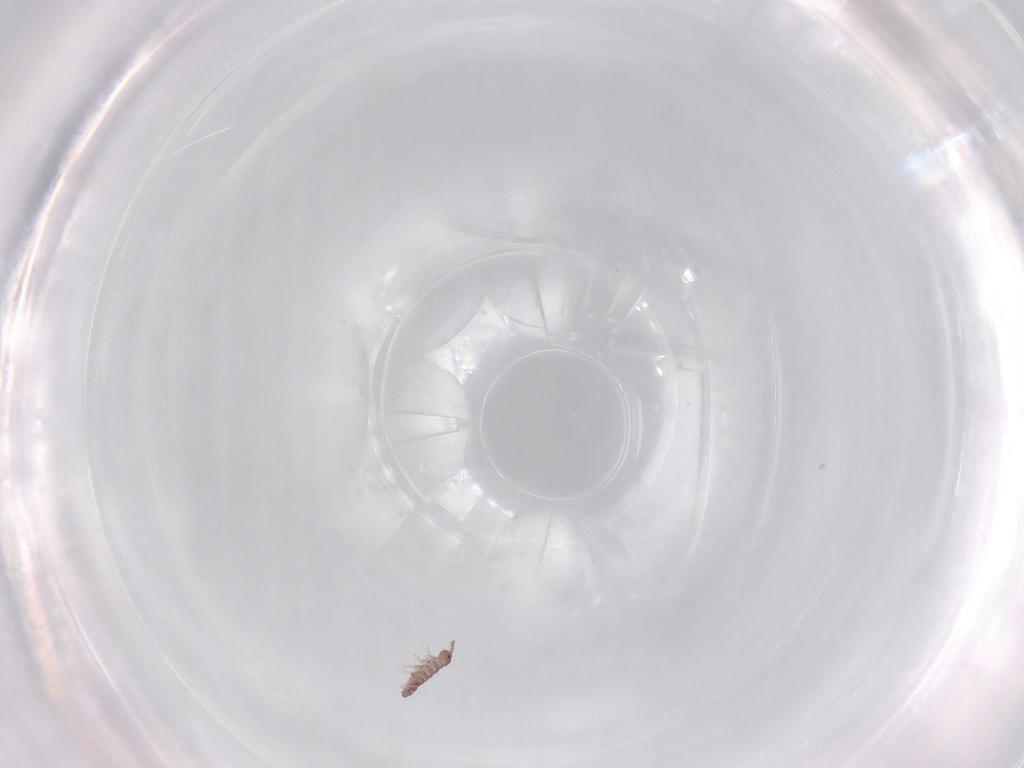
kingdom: Animalia
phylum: Arthropoda
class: Collembola
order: Poduromorpha
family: Hypogastruridae
